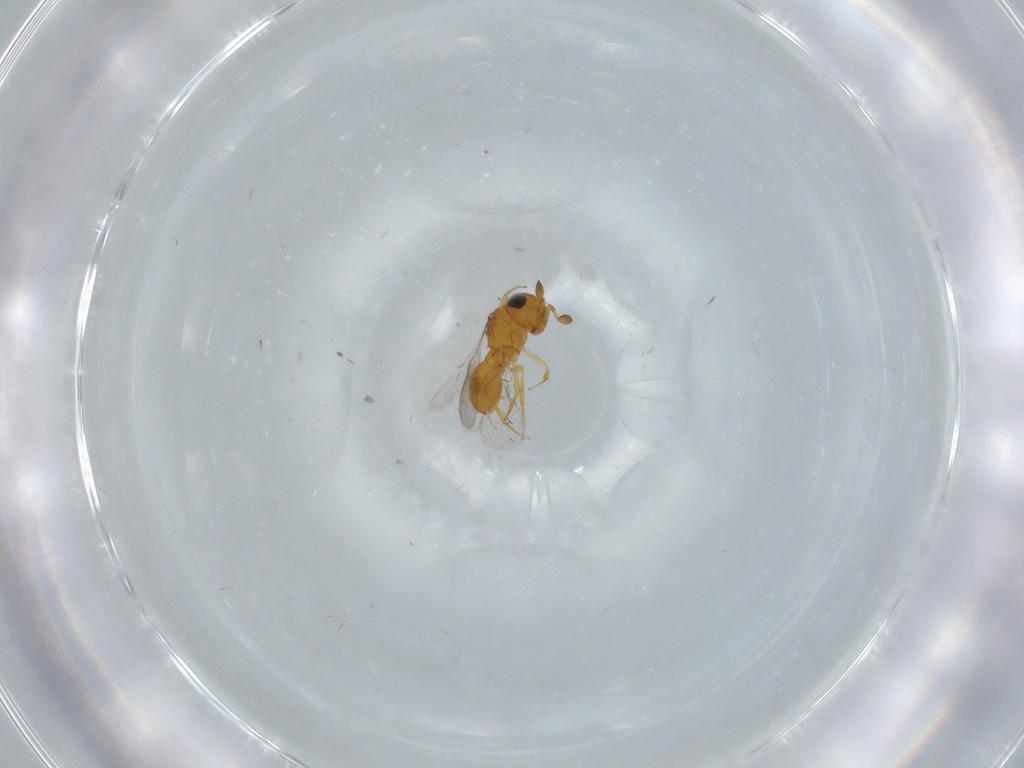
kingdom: Animalia
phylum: Arthropoda
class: Insecta
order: Hymenoptera
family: Scelionidae
